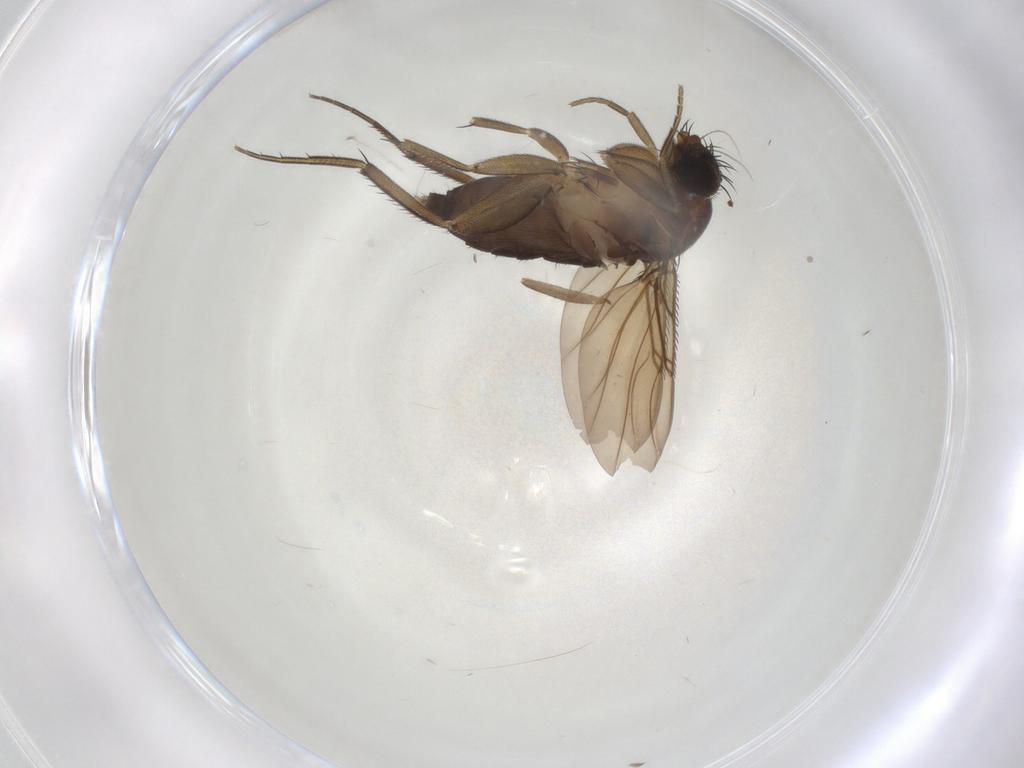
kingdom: Animalia
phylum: Arthropoda
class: Insecta
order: Diptera
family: Phoridae
